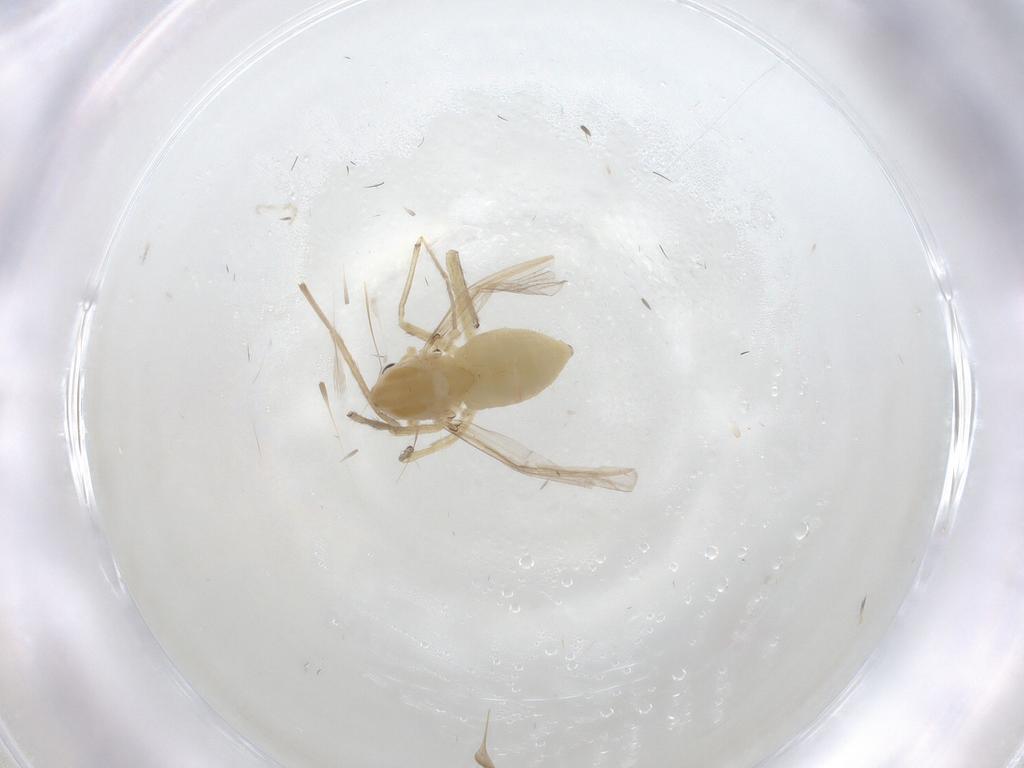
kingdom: Animalia
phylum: Arthropoda
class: Insecta
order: Diptera
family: Chironomidae
